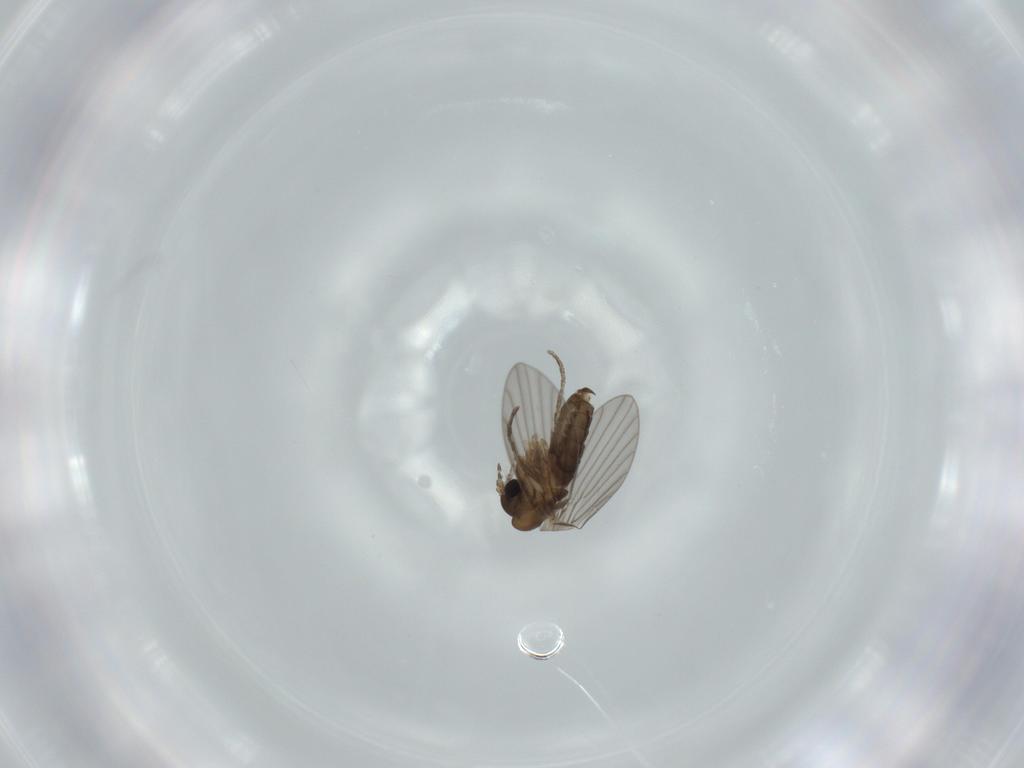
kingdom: Animalia
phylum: Arthropoda
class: Insecta
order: Diptera
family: Psychodidae
